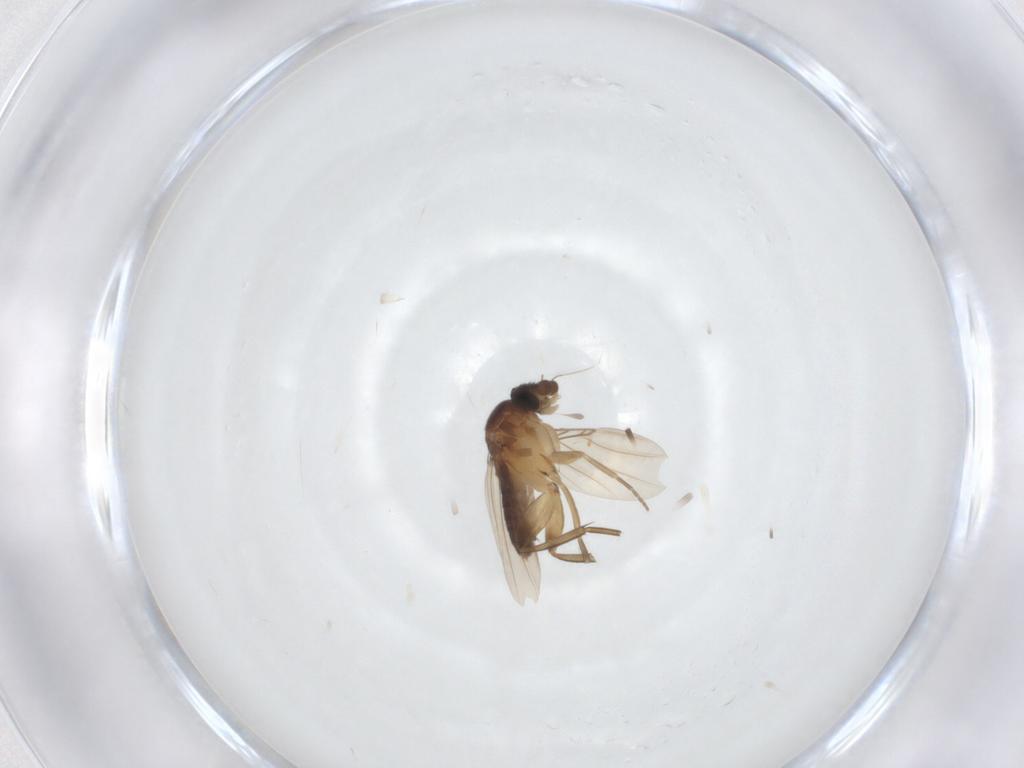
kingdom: Animalia
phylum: Arthropoda
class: Insecta
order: Diptera
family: Phoridae
